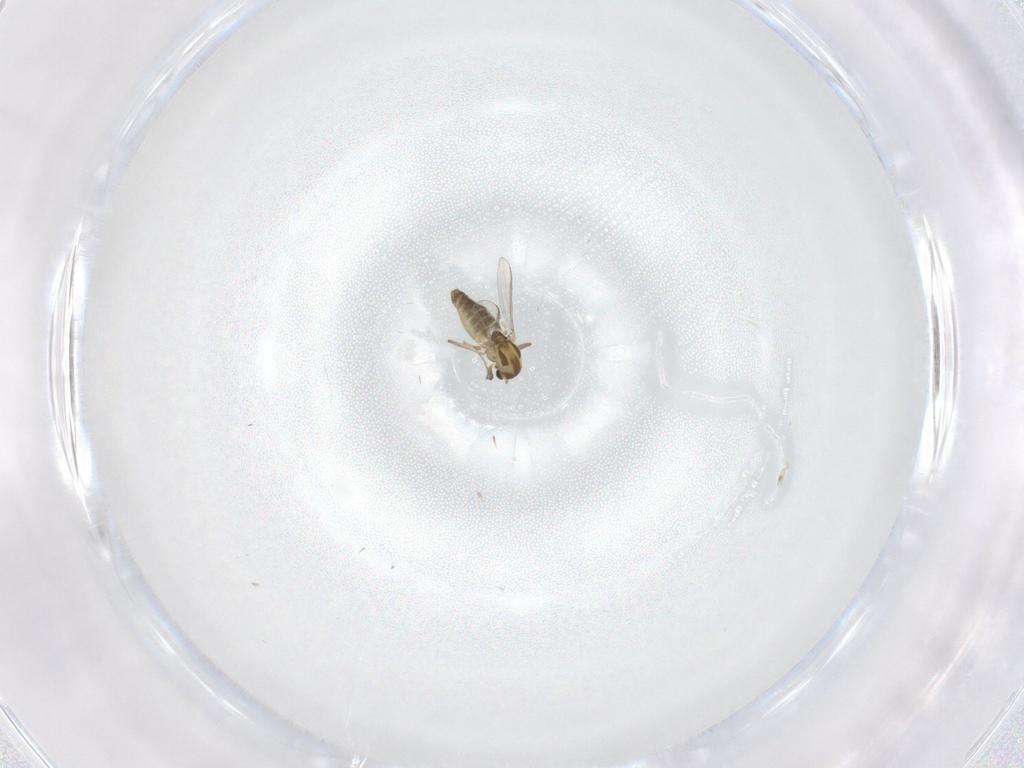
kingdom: Animalia
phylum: Arthropoda
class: Insecta
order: Diptera
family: Chironomidae
